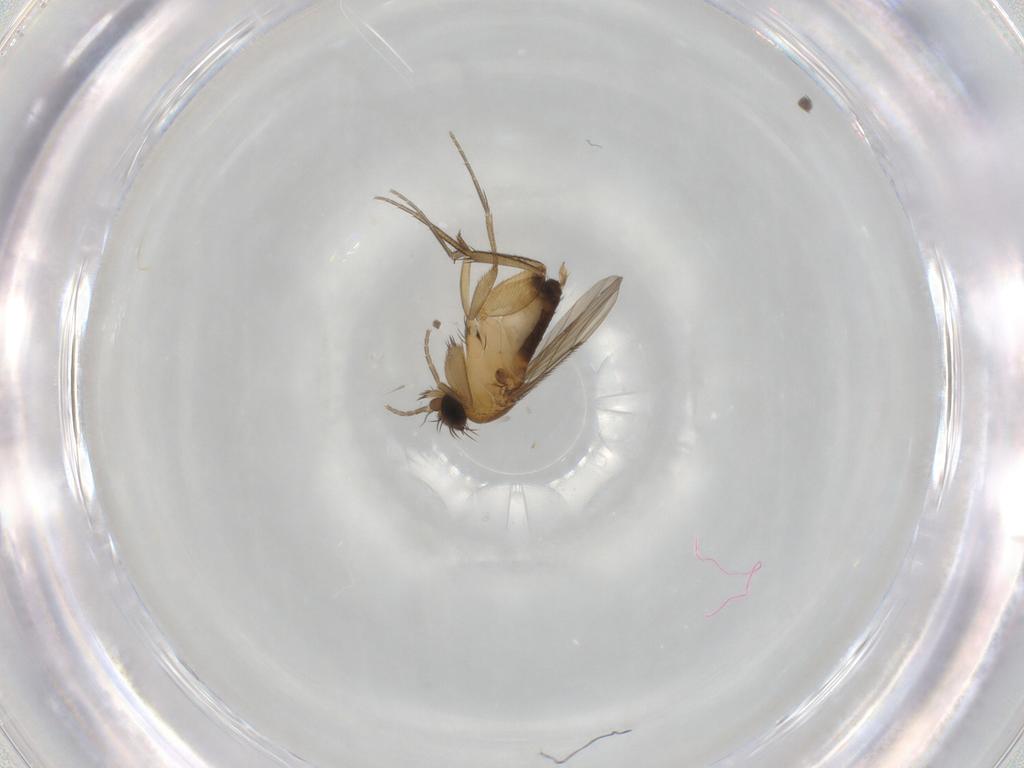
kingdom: Animalia
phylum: Arthropoda
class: Insecta
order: Diptera
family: Phoridae
